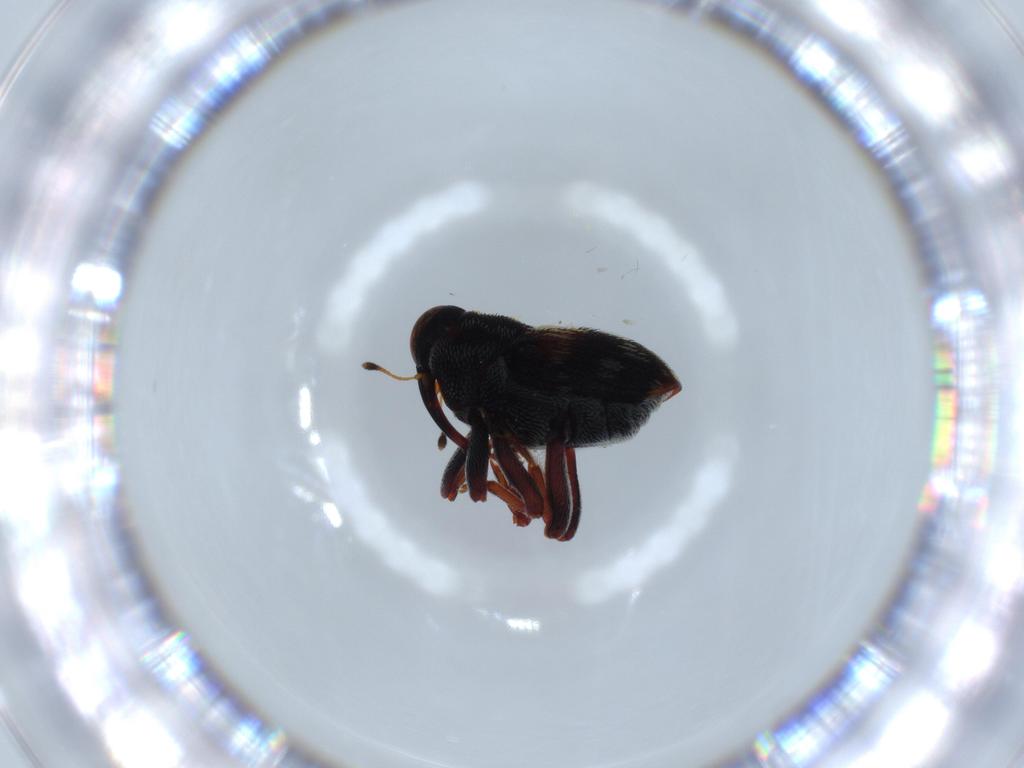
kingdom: Animalia
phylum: Arthropoda
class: Insecta
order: Coleoptera
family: Curculionidae
